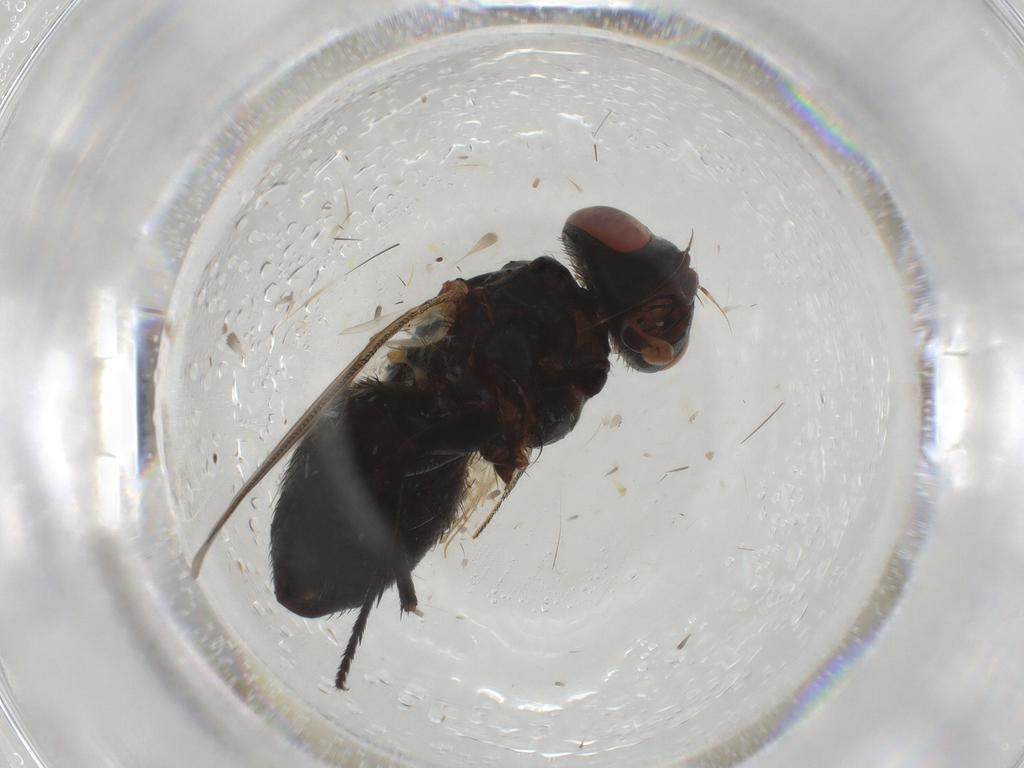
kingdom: Animalia
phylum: Arthropoda
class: Insecta
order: Diptera
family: Sarcophagidae
